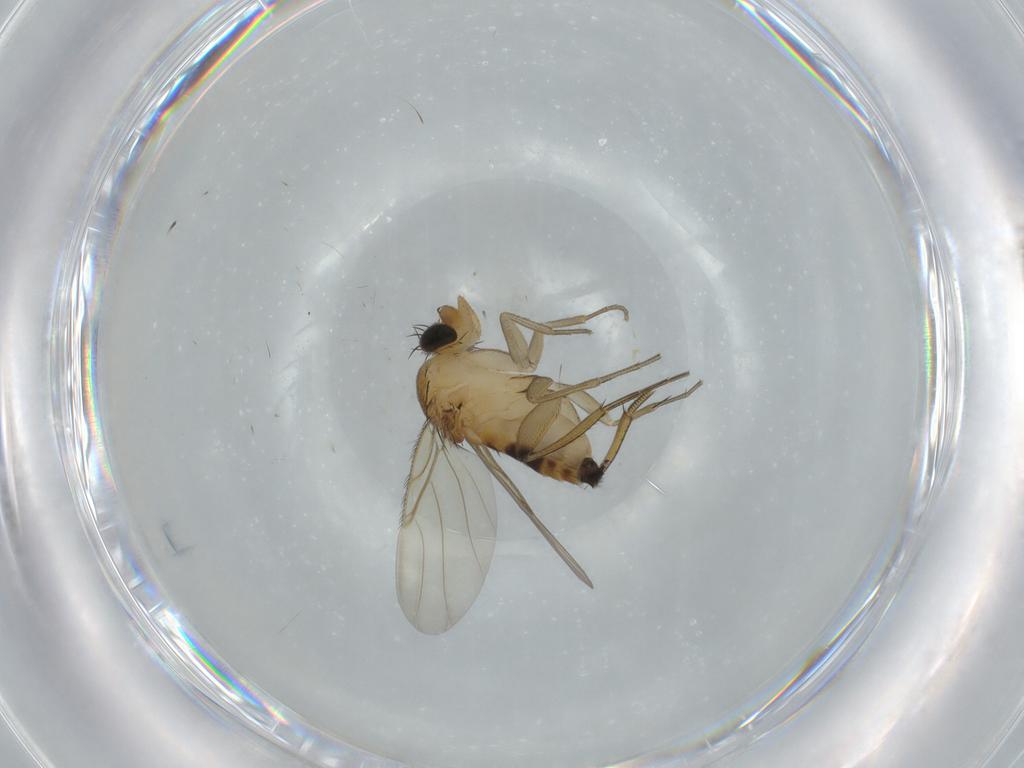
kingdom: Animalia
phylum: Arthropoda
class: Insecta
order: Diptera
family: Phoridae
